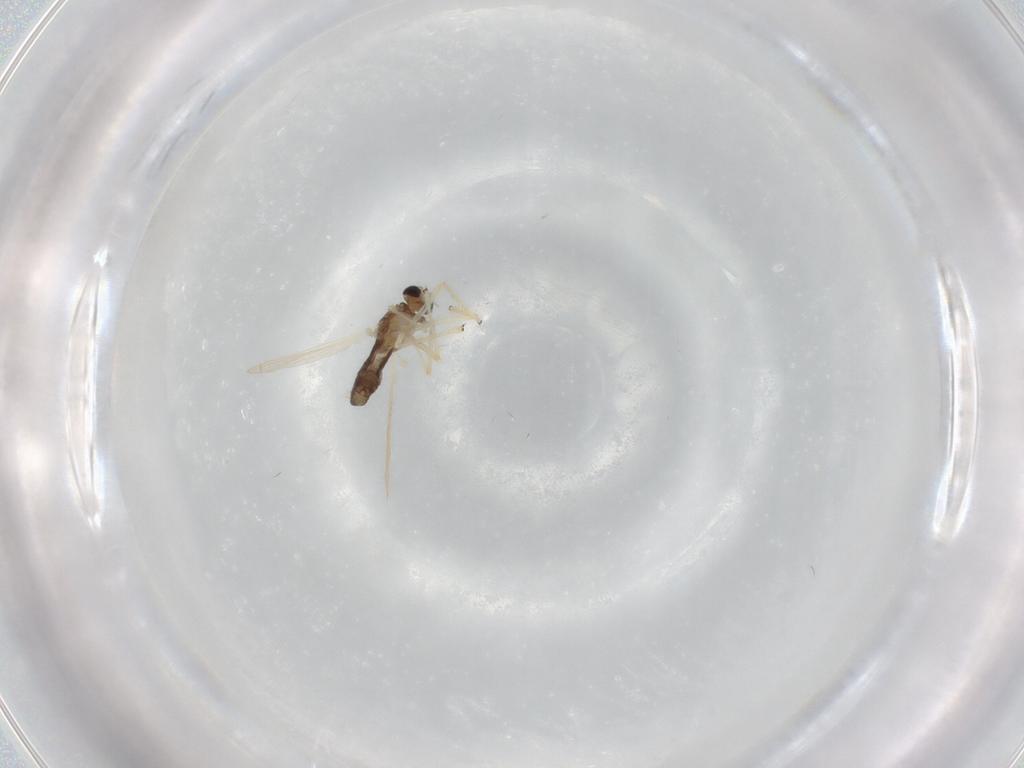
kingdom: Animalia
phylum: Arthropoda
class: Insecta
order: Diptera
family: Chironomidae
